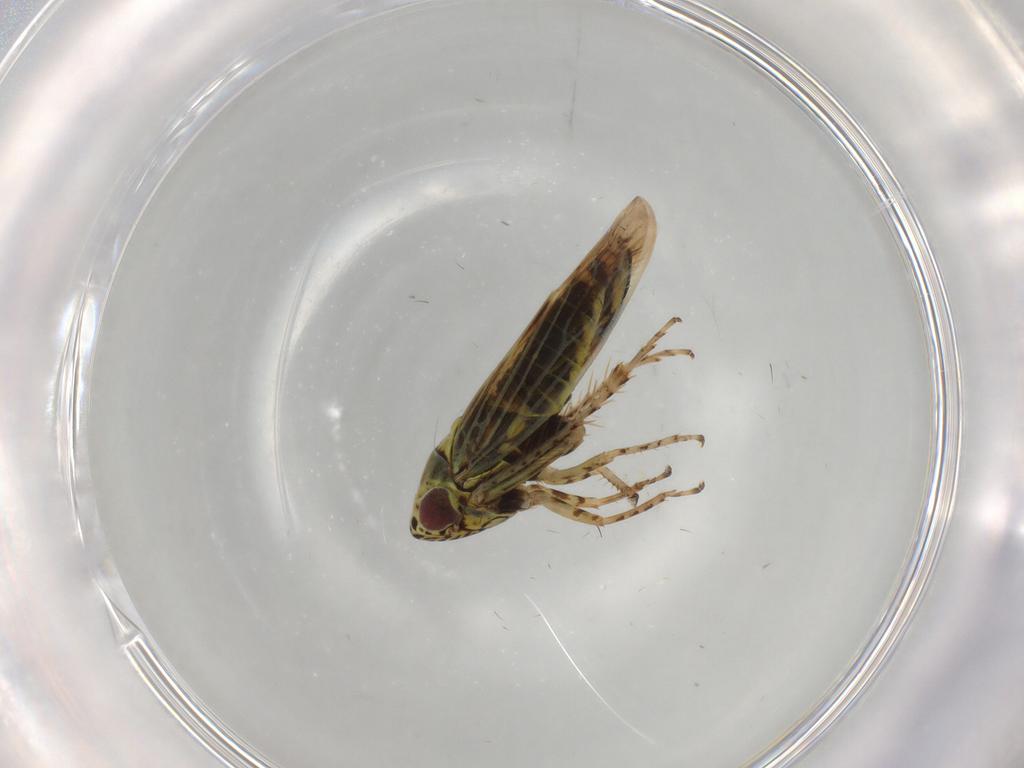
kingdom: Animalia
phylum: Arthropoda
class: Insecta
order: Hemiptera
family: Cicadellidae
